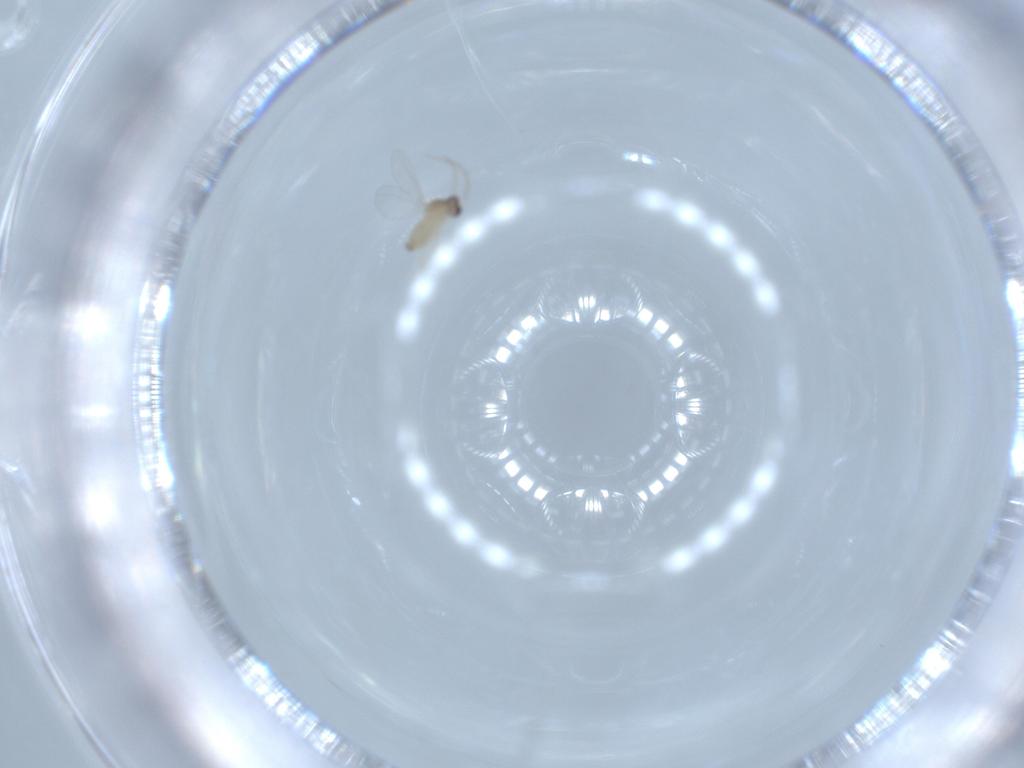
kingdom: Animalia
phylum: Arthropoda
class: Insecta
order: Diptera
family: Cecidomyiidae
